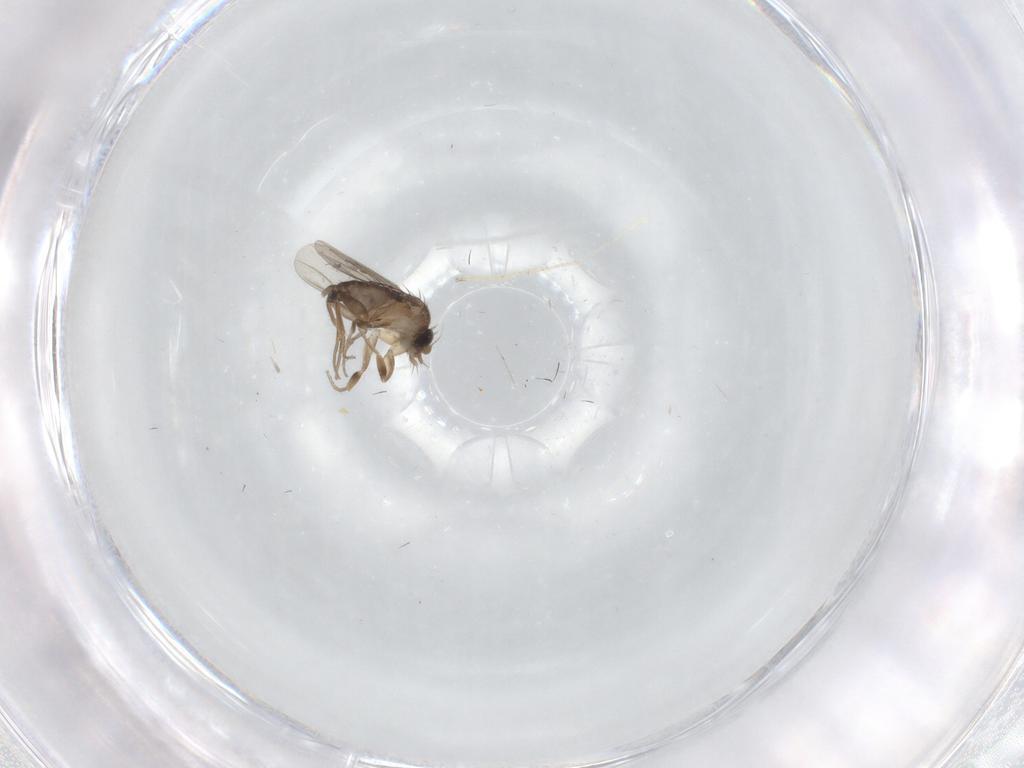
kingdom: Animalia
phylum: Arthropoda
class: Insecta
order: Diptera
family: Phoridae
